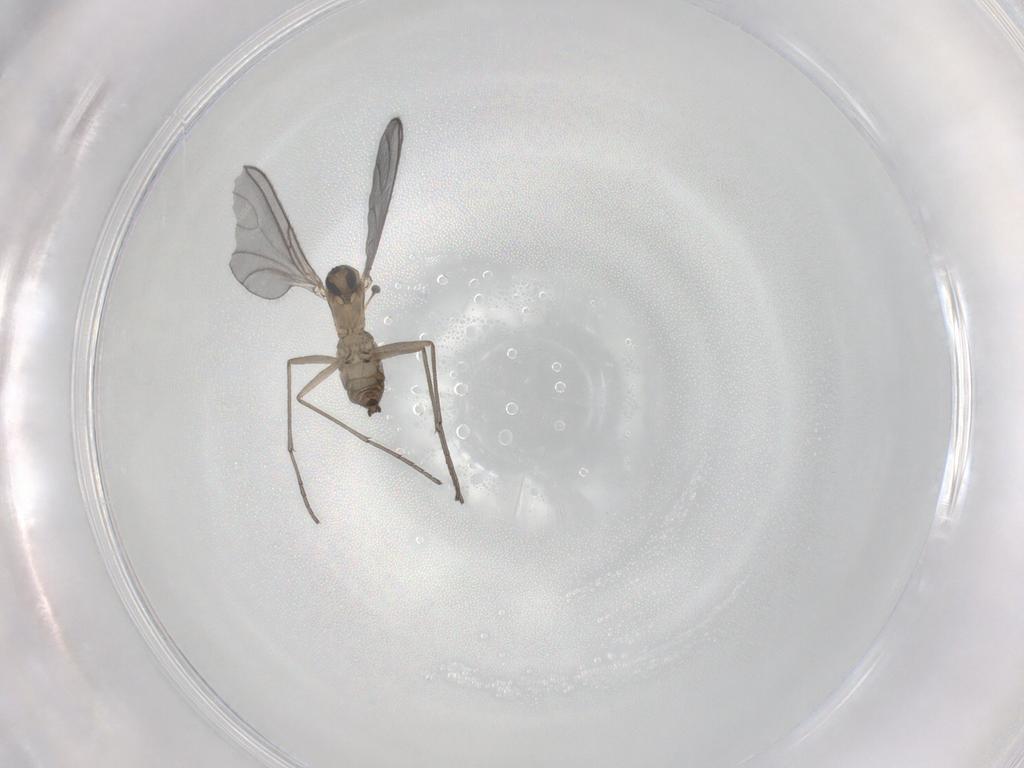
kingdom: Animalia
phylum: Arthropoda
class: Insecta
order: Diptera
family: Sciaridae
